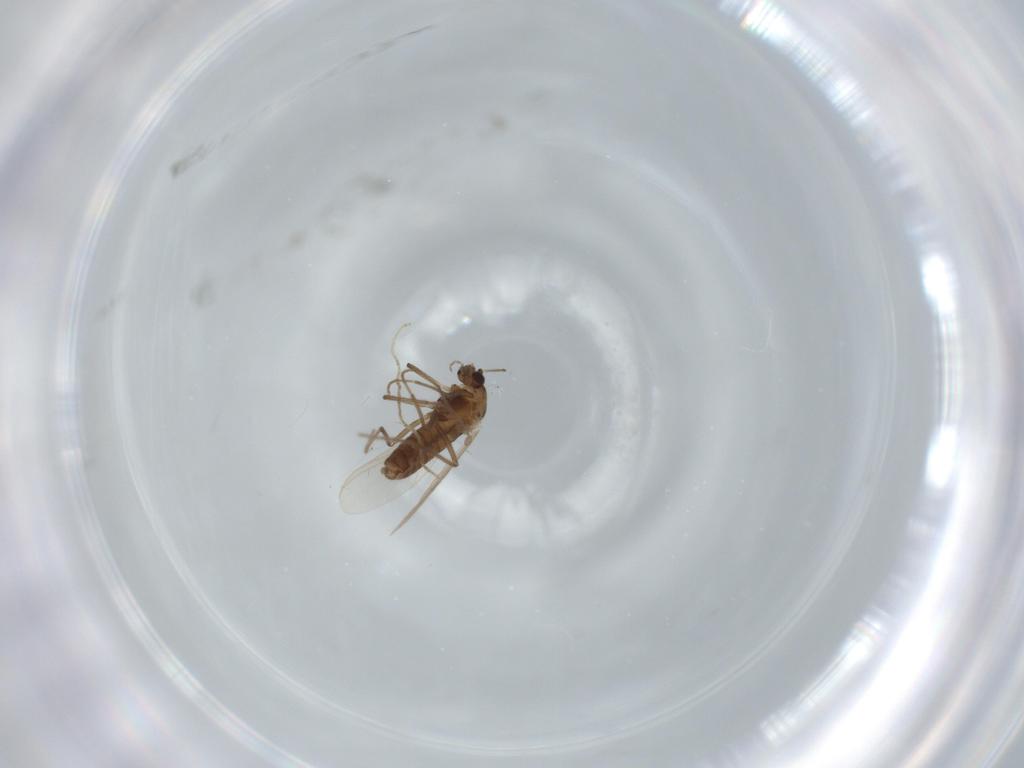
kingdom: Animalia
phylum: Arthropoda
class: Insecta
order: Diptera
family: Chironomidae
